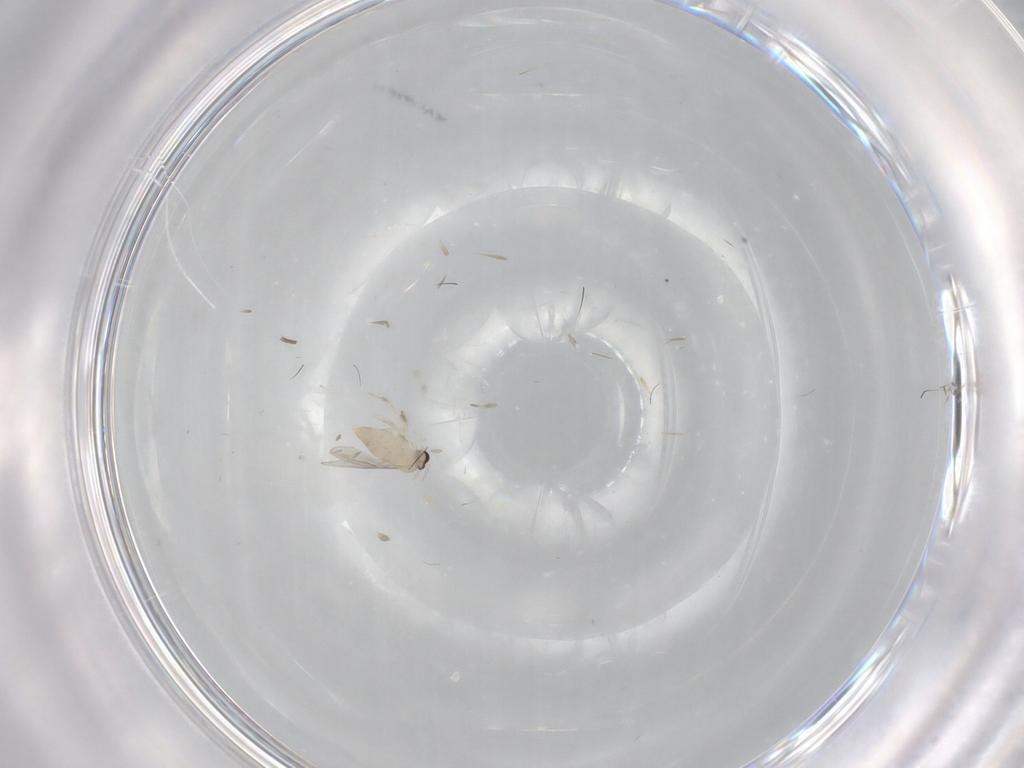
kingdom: Animalia
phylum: Arthropoda
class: Insecta
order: Diptera
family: Cecidomyiidae
